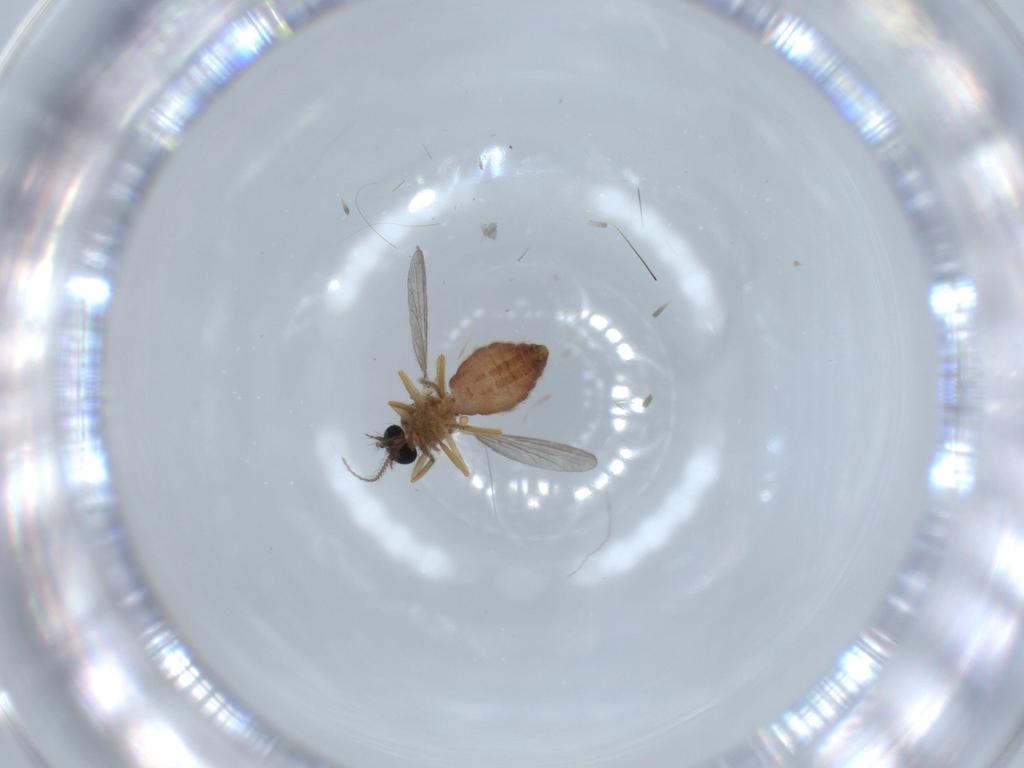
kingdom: Animalia
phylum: Arthropoda
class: Insecta
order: Diptera
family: Ceratopogonidae
